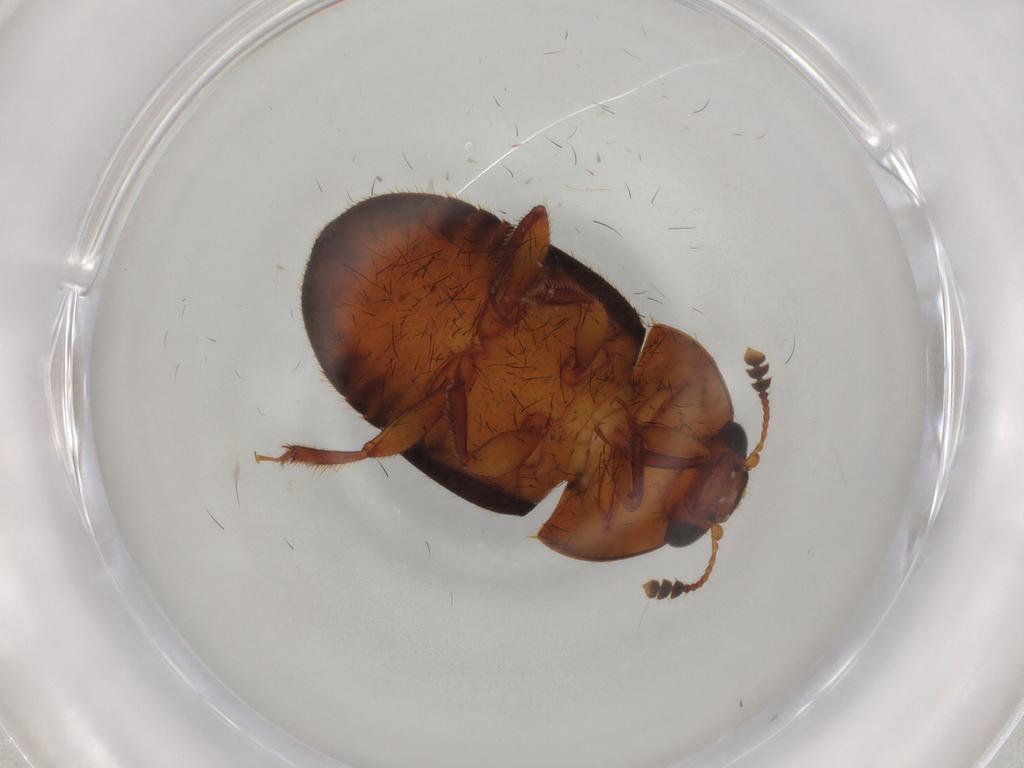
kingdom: Animalia
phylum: Arthropoda
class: Insecta
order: Coleoptera
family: Nitidulidae
